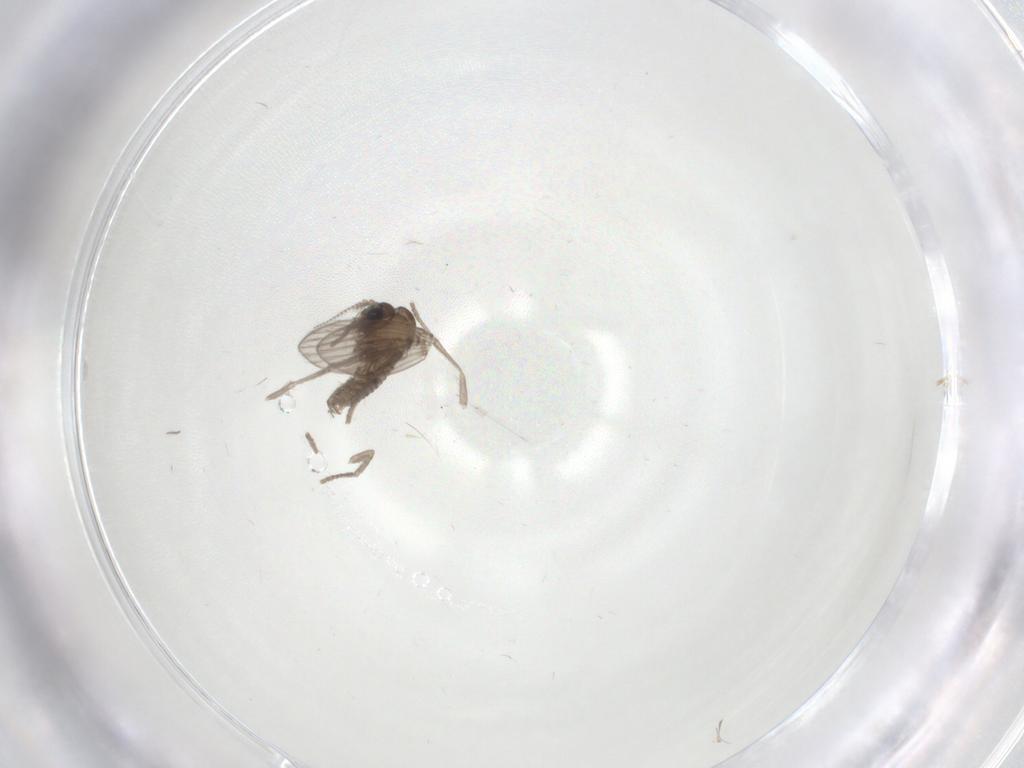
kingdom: Animalia
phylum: Arthropoda
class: Insecta
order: Diptera
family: Psychodidae
